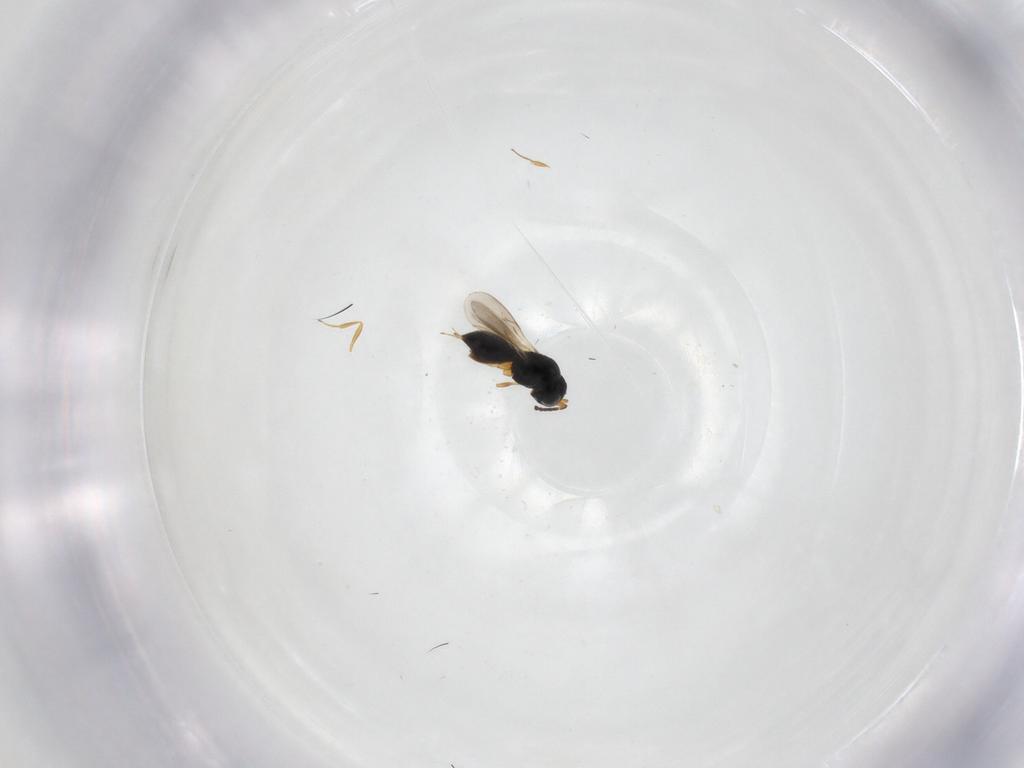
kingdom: Animalia
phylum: Arthropoda
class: Insecta
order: Hymenoptera
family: Scelionidae
